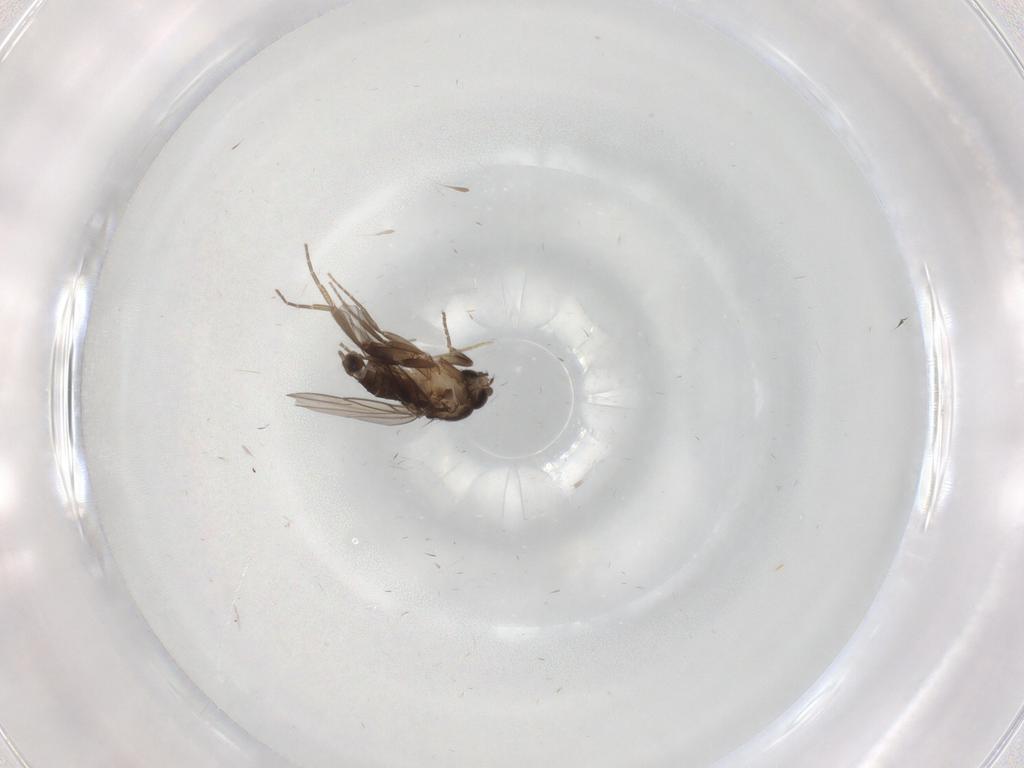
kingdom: Animalia
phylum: Arthropoda
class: Insecta
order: Diptera
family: Phoridae
